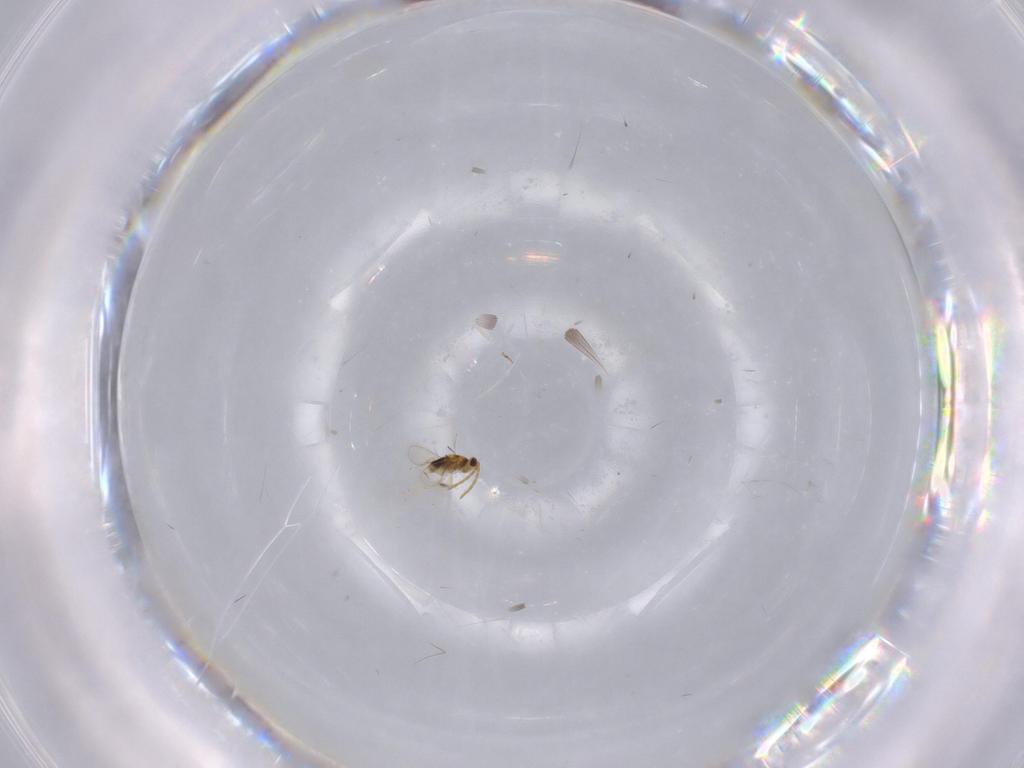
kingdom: Animalia
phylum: Arthropoda
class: Insecta
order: Hymenoptera
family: Aphelinidae
